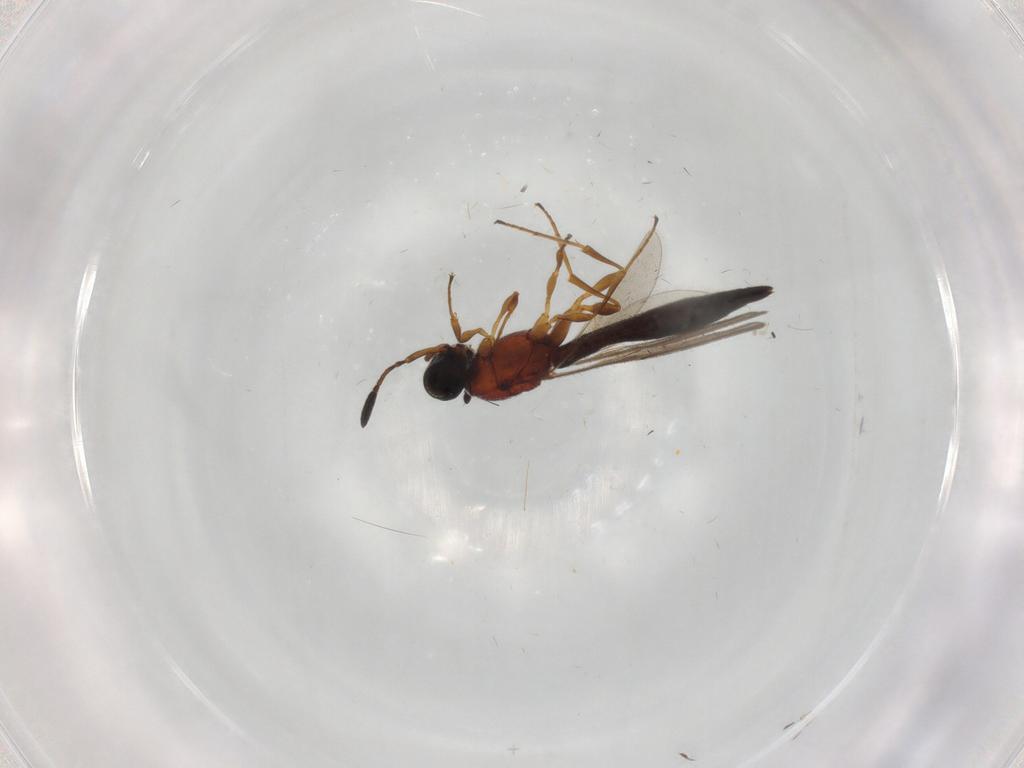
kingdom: Animalia
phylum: Arthropoda
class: Insecta
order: Hymenoptera
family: Scelionidae
